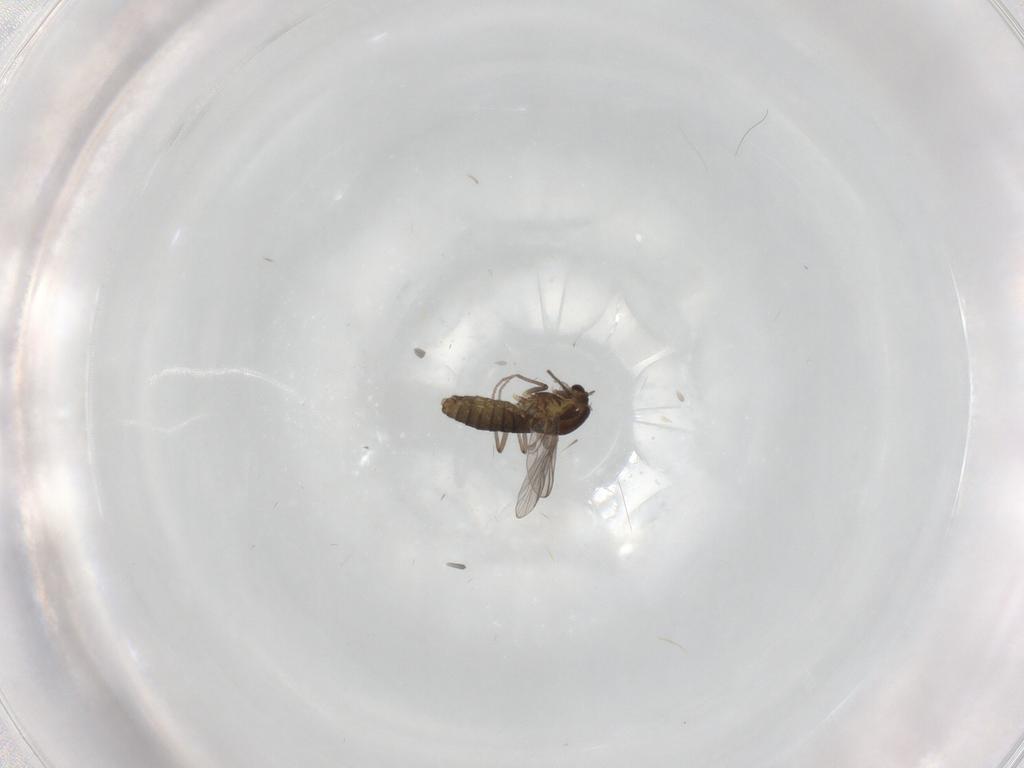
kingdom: Animalia
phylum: Arthropoda
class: Insecta
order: Diptera
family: Chironomidae
